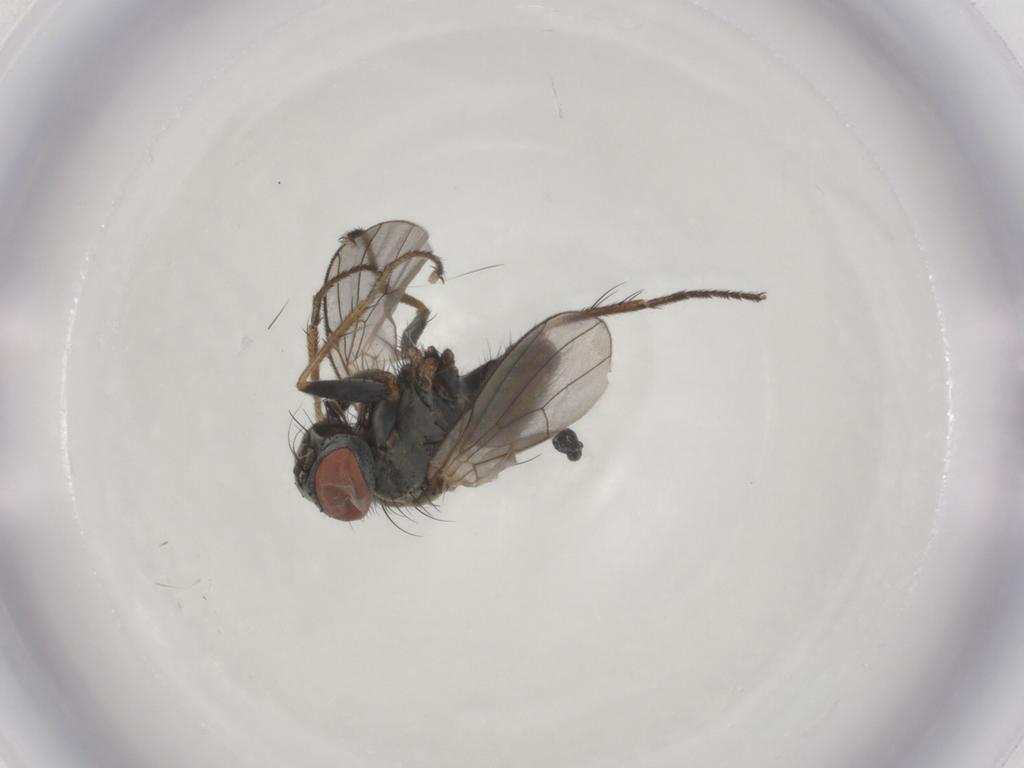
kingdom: Animalia
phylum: Arthropoda
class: Insecta
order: Diptera
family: Muscidae
